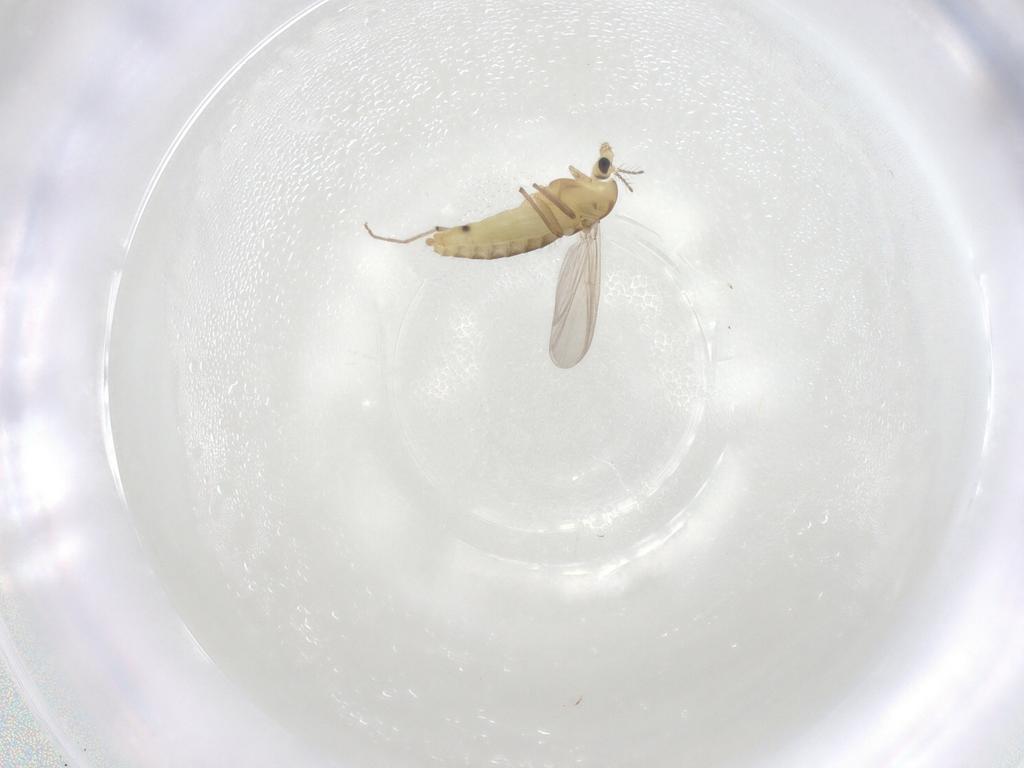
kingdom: Animalia
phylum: Arthropoda
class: Insecta
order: Diptera
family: Chironomidae
